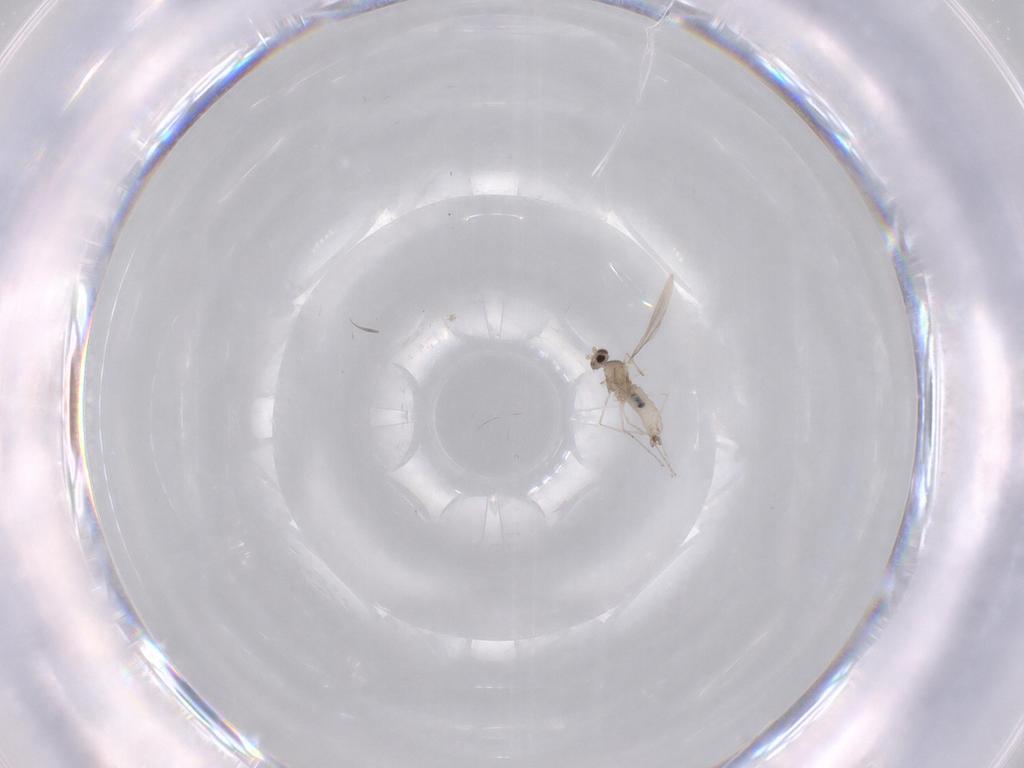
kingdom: Animalia
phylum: Arthropoda
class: Insecta
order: Diptera
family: Cecidomyiidae
